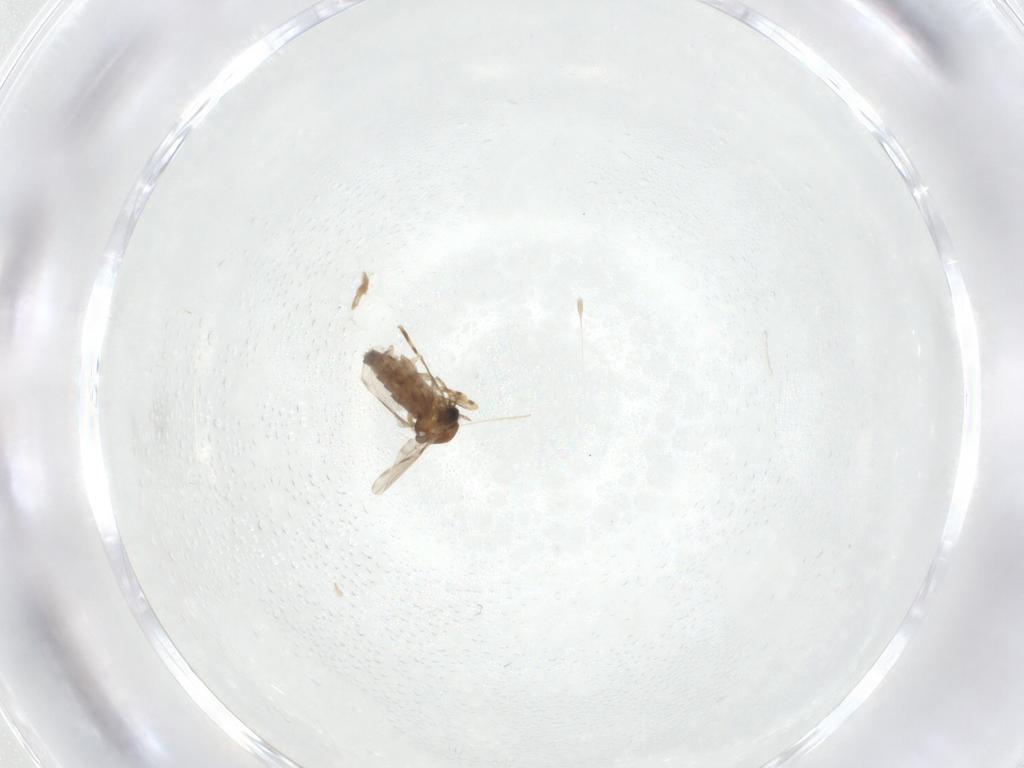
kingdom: Animalia
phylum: Arthropoda
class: Insecta
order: Diptera
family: Ceratopogonidae
